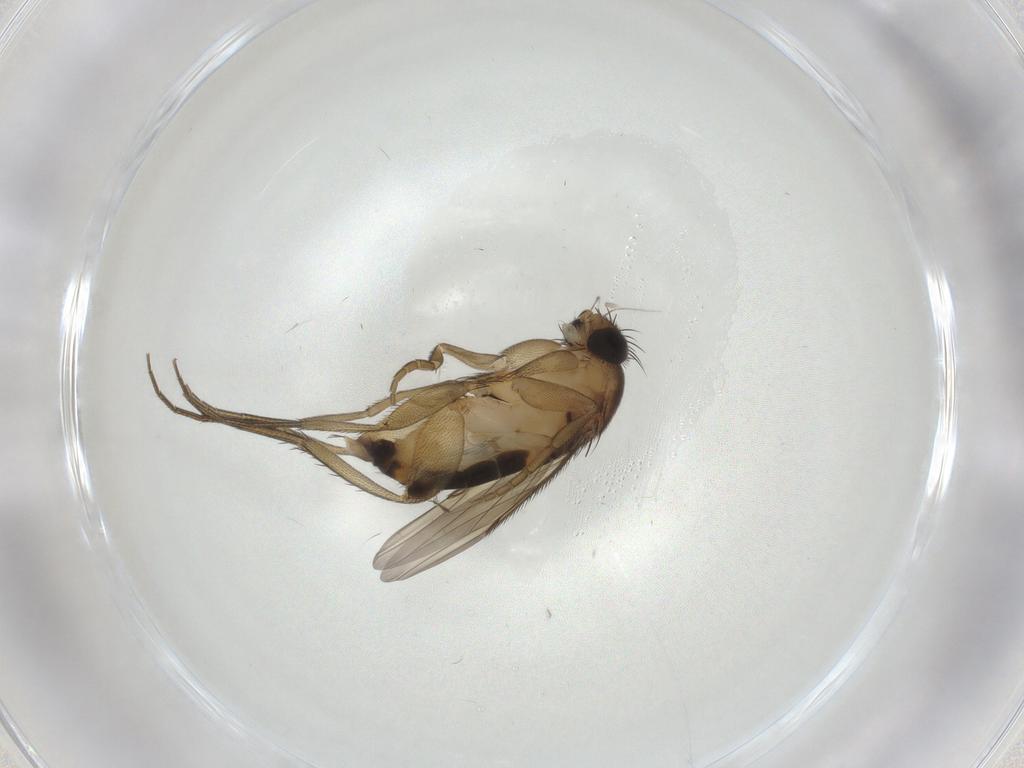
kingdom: Animalia
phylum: Arthropoda
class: Insecta
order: Diptera
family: Phoridae
